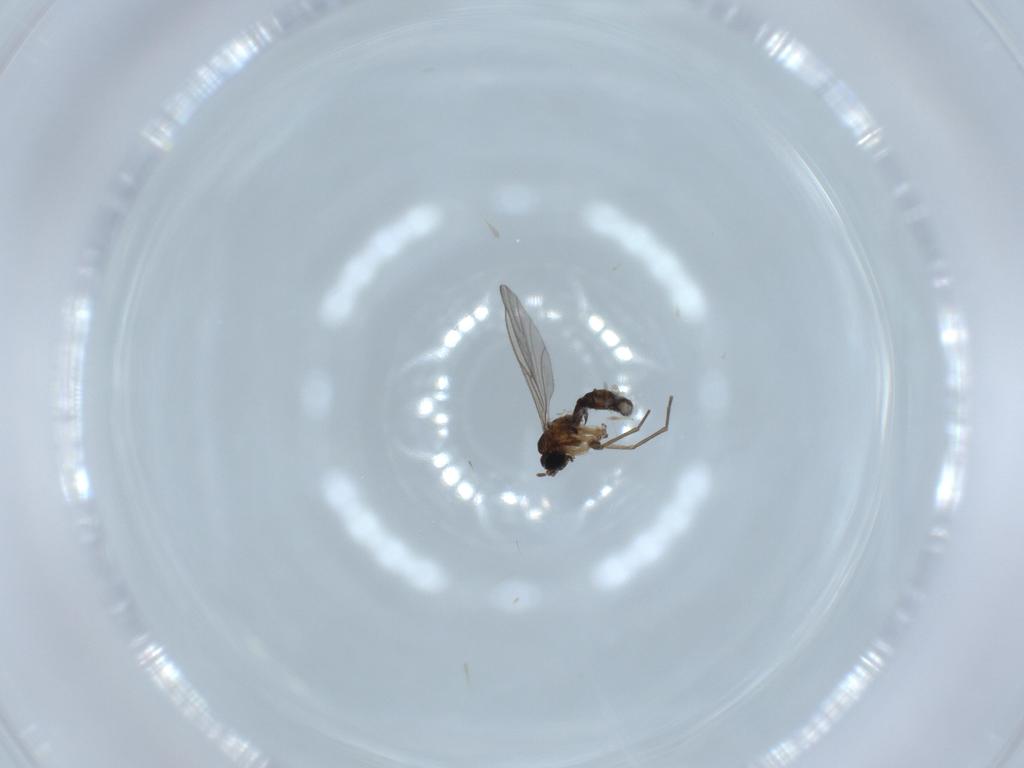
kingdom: Animalia
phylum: Arthropoda
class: Insecta
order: Diptera
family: Sciaridae
